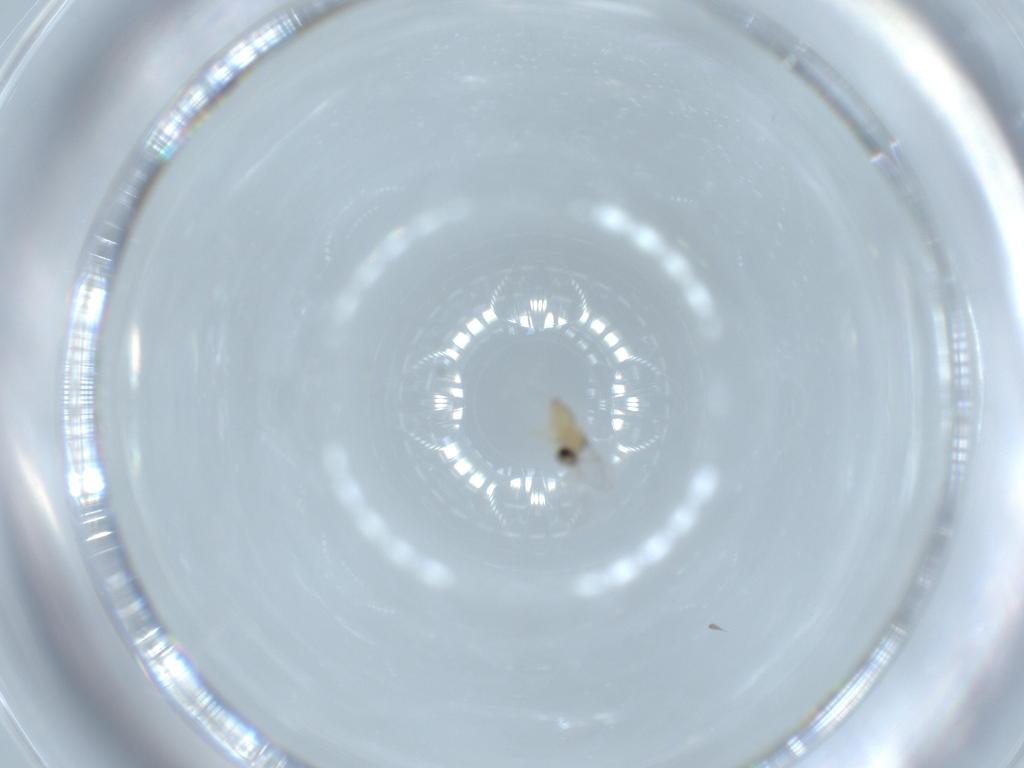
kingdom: Animalia
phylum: Arthropoda
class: Insecta
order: Diptera
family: Cecidomyiidae
